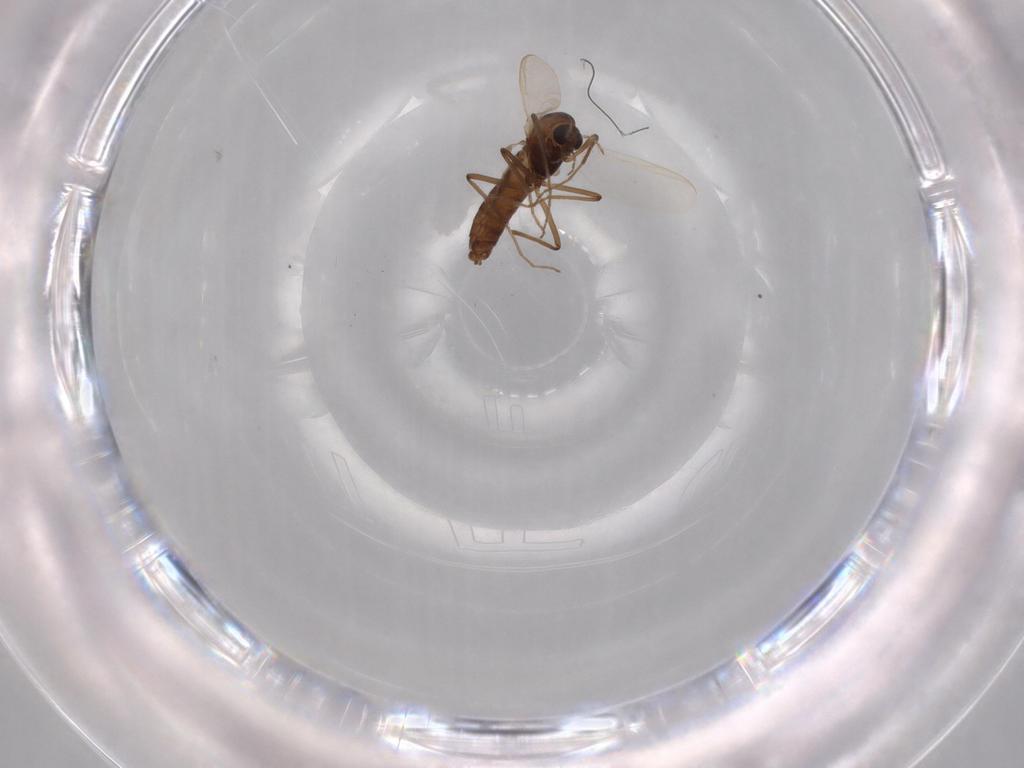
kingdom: Animalia
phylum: Arthropoda
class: Insecta
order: Diptera
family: Chironomidae
